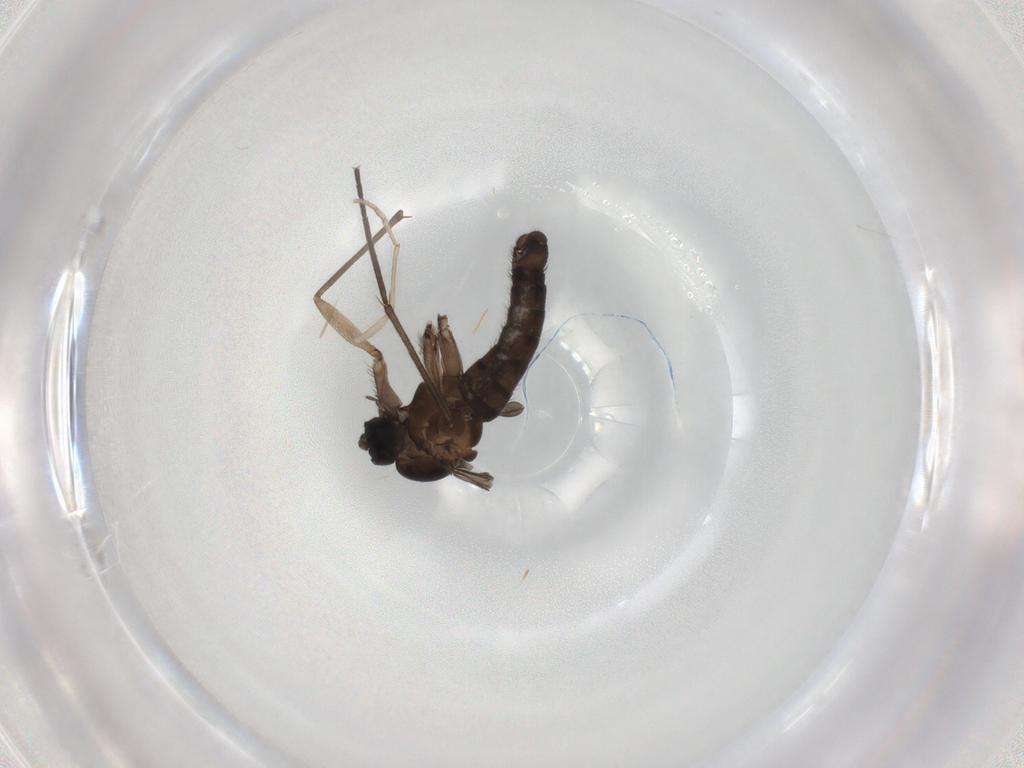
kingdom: Animalia
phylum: Arthropoda
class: Insecta
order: Diptera
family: Sciaridae
